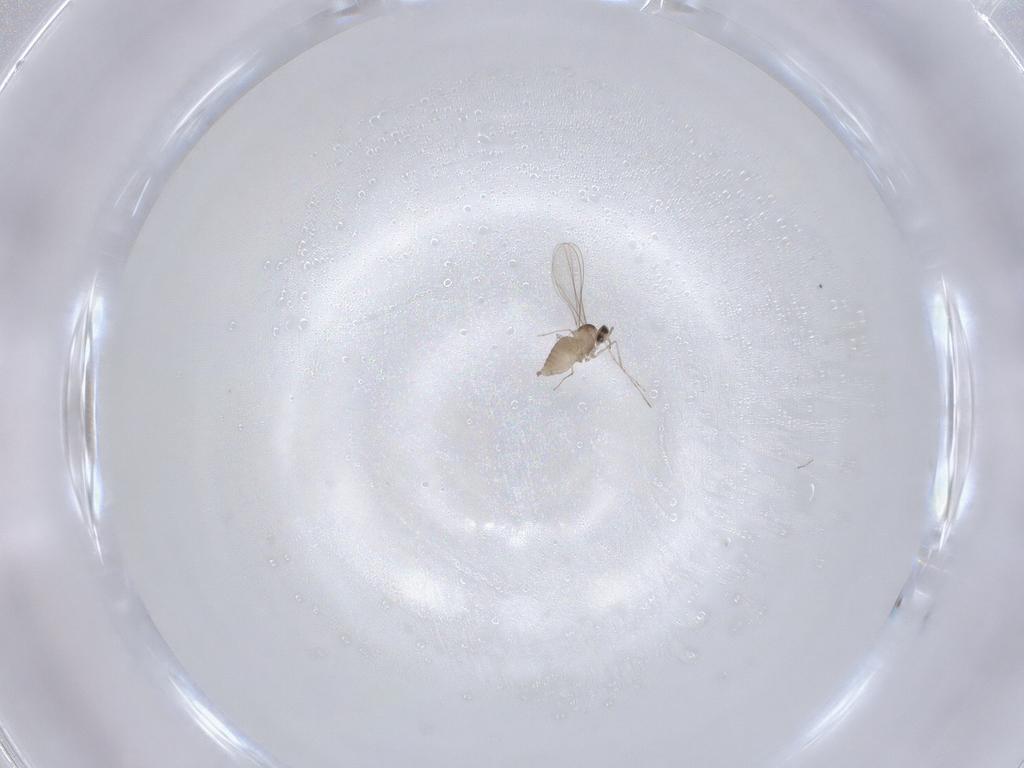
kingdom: Animalia
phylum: Arthropoda
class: Insecta
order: Diptera
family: Cecidomyiidae
